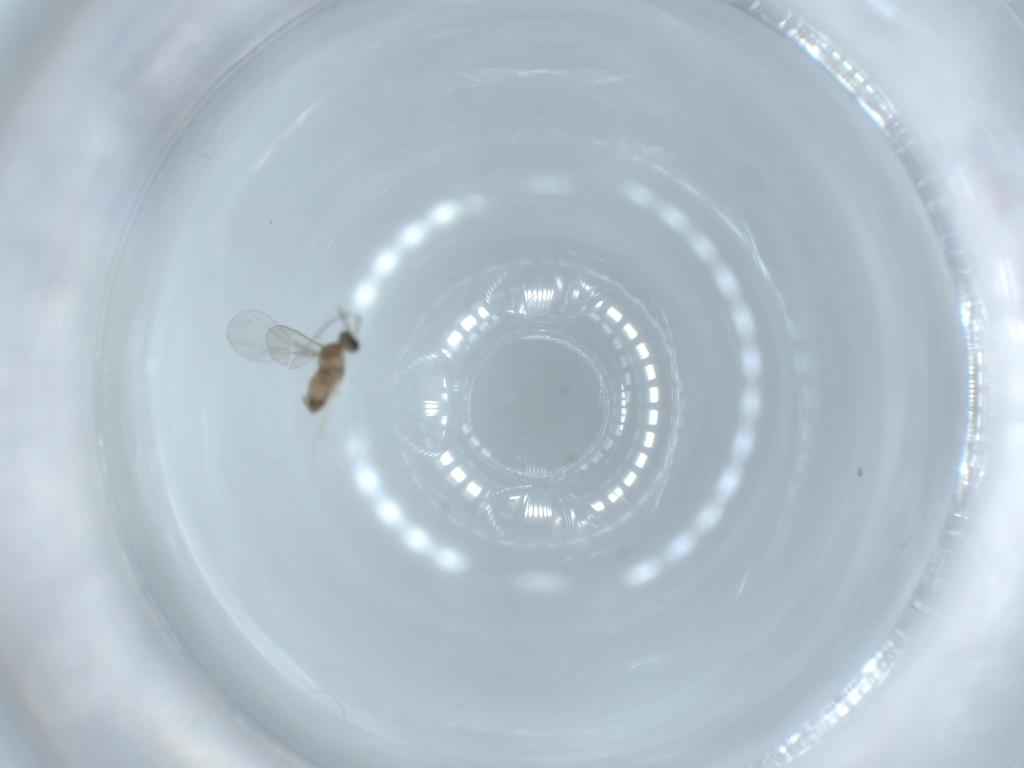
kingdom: Animalia
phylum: Arthropoda
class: Insecta
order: Diptera
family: Cecidomyiidae
